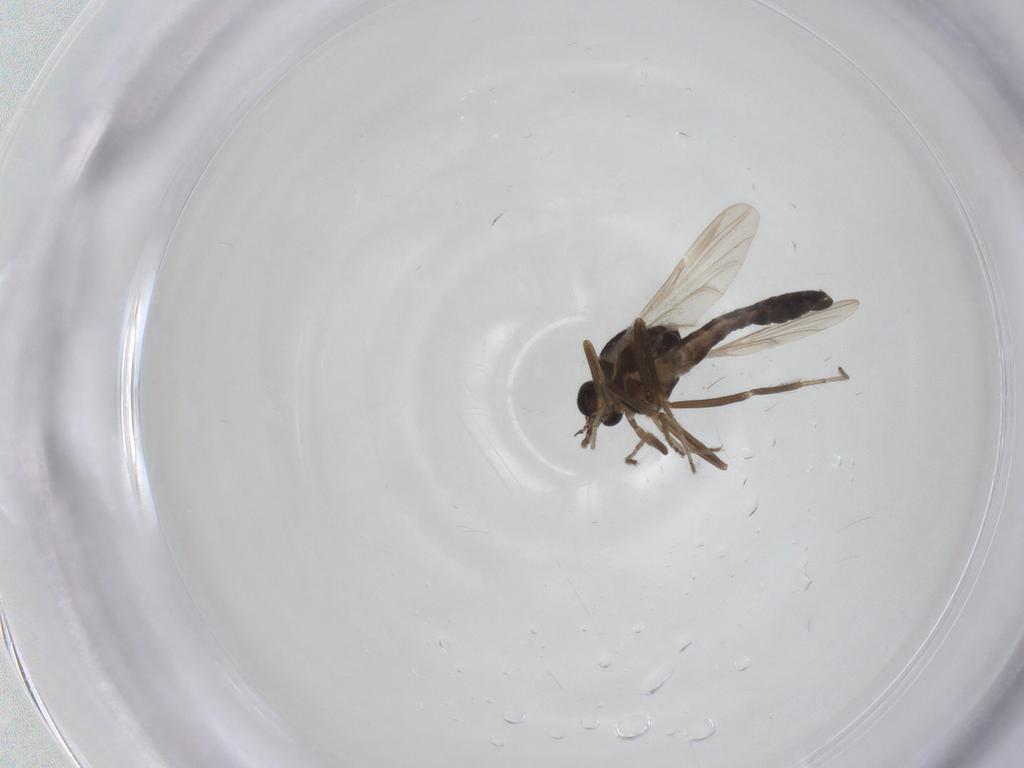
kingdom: Animalia
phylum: Arthropoda
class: Insecta
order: Diptera
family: Ceratopogonidae
